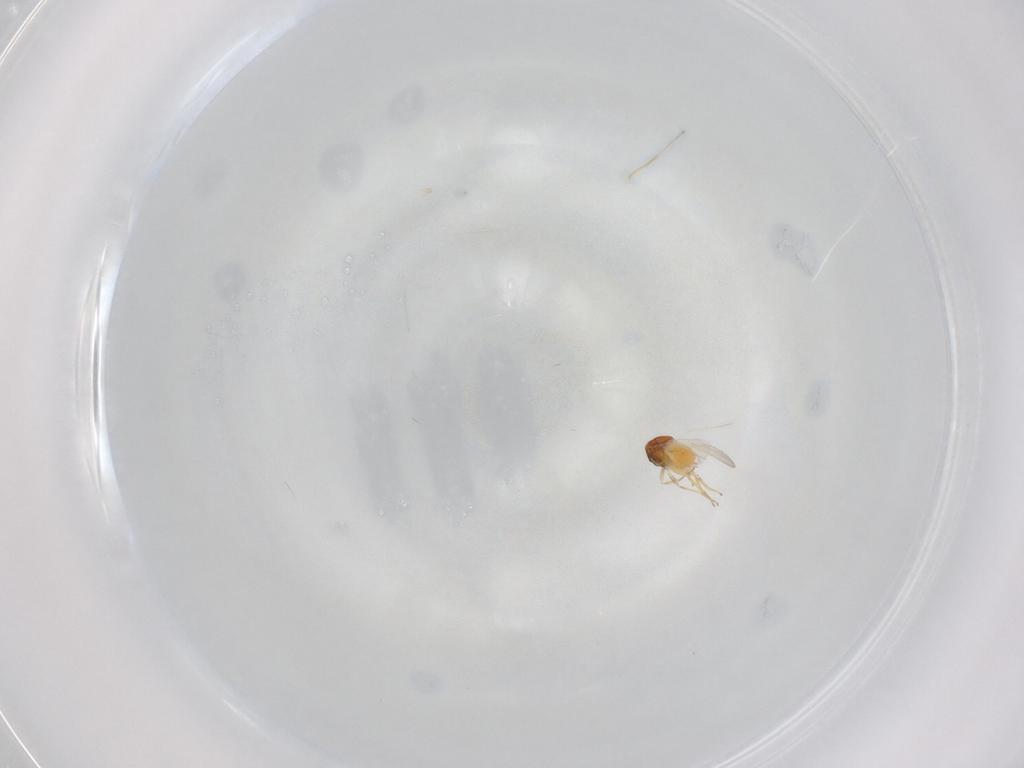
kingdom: Animalia
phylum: Arthropoda
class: Insecta
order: Hymenoptera
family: Aphelinidae
